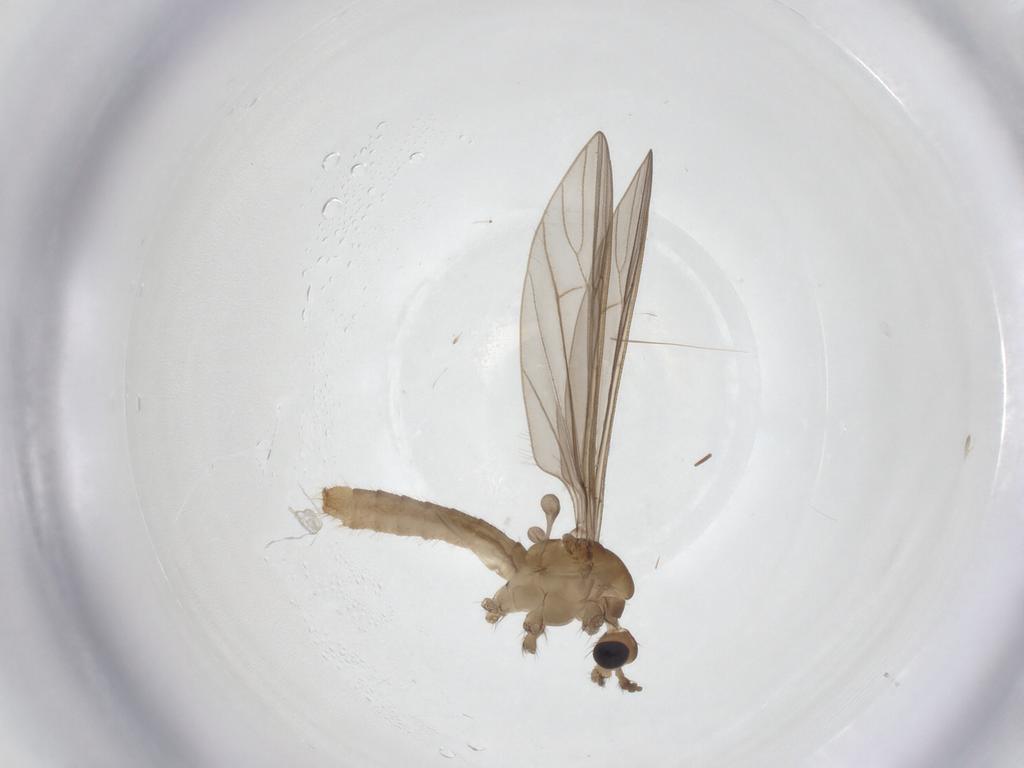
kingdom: Animalia
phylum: Arthropoda
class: Insecta
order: Diptera
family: Limoniidae
